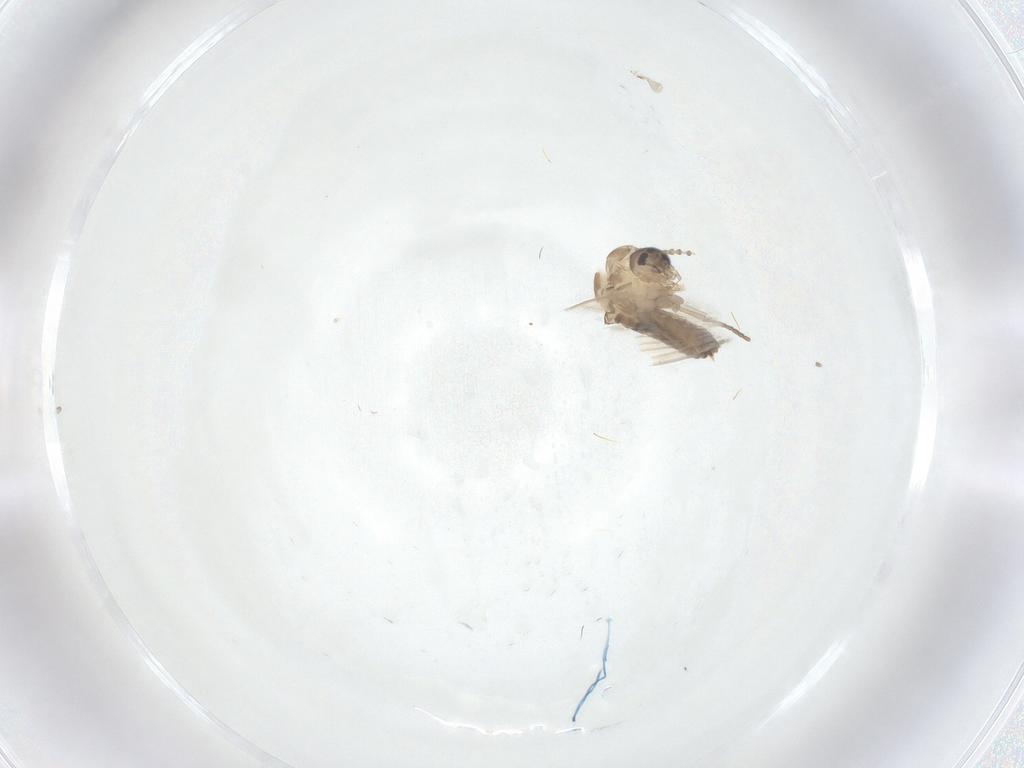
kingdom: Animalia
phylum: Arthropoda
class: Insecta
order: Diptera
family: Psychodidae
